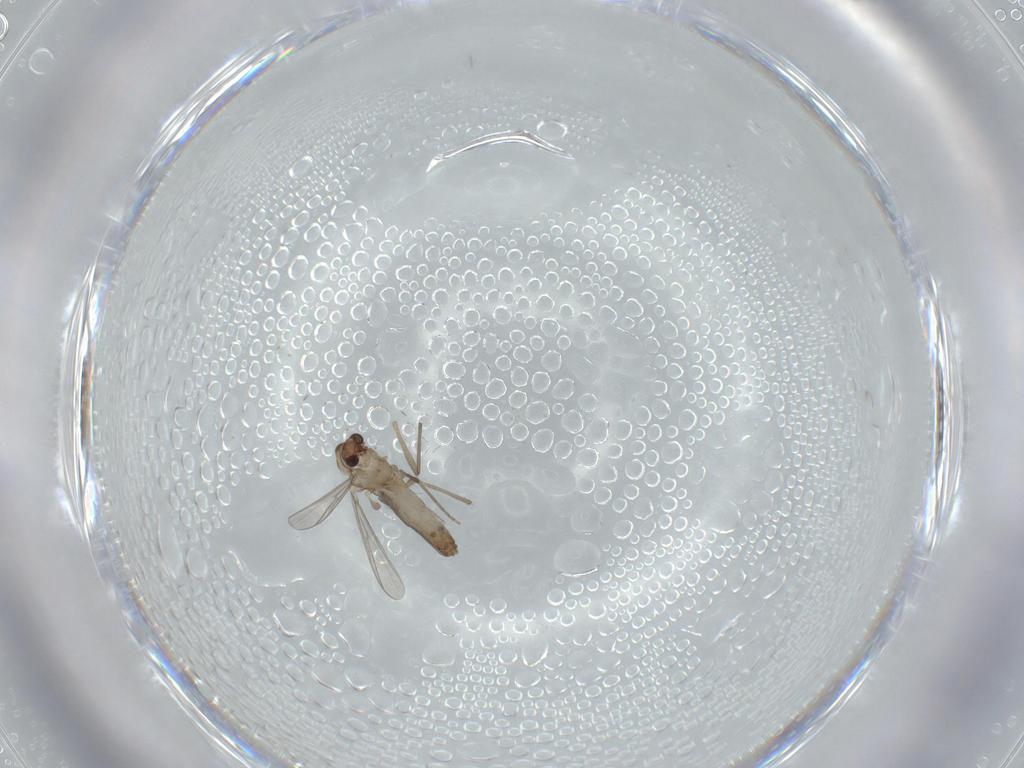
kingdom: Animalia
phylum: Arthropoda
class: Insecta
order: Diptera
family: Chironomidae
